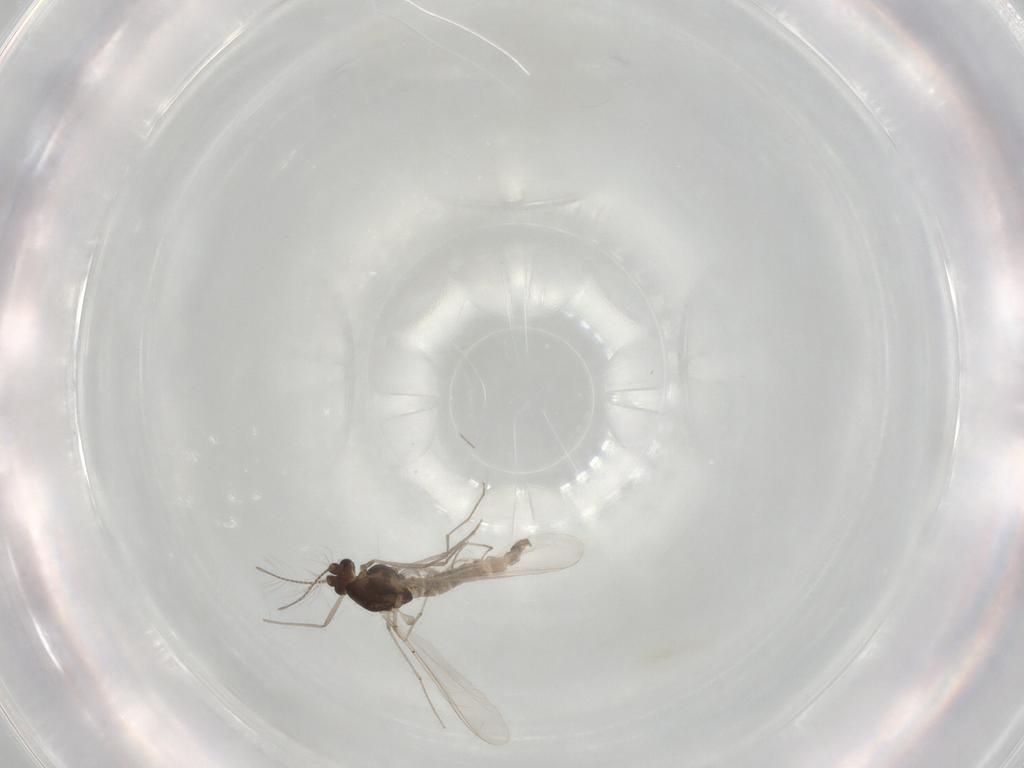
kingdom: Animalia
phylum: Arthropoda
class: Insecta
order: Diptera
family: Chironomidae
